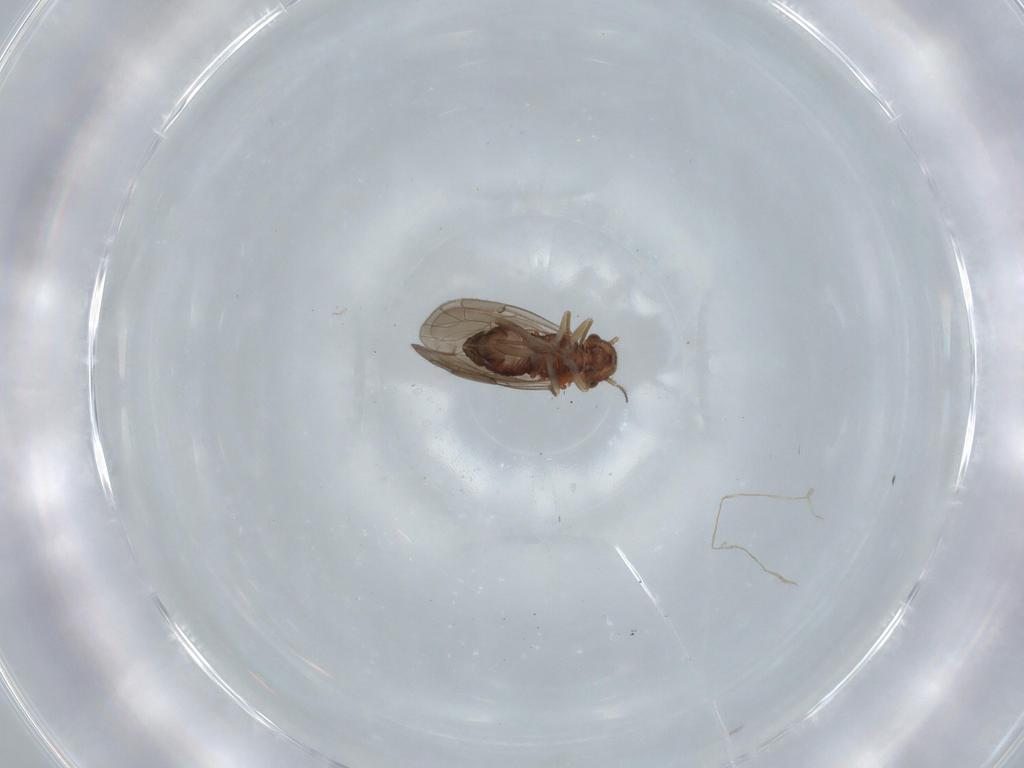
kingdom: Animalia
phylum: Arthropoda
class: Insecta
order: Psocodea
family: Ectopsocidae
